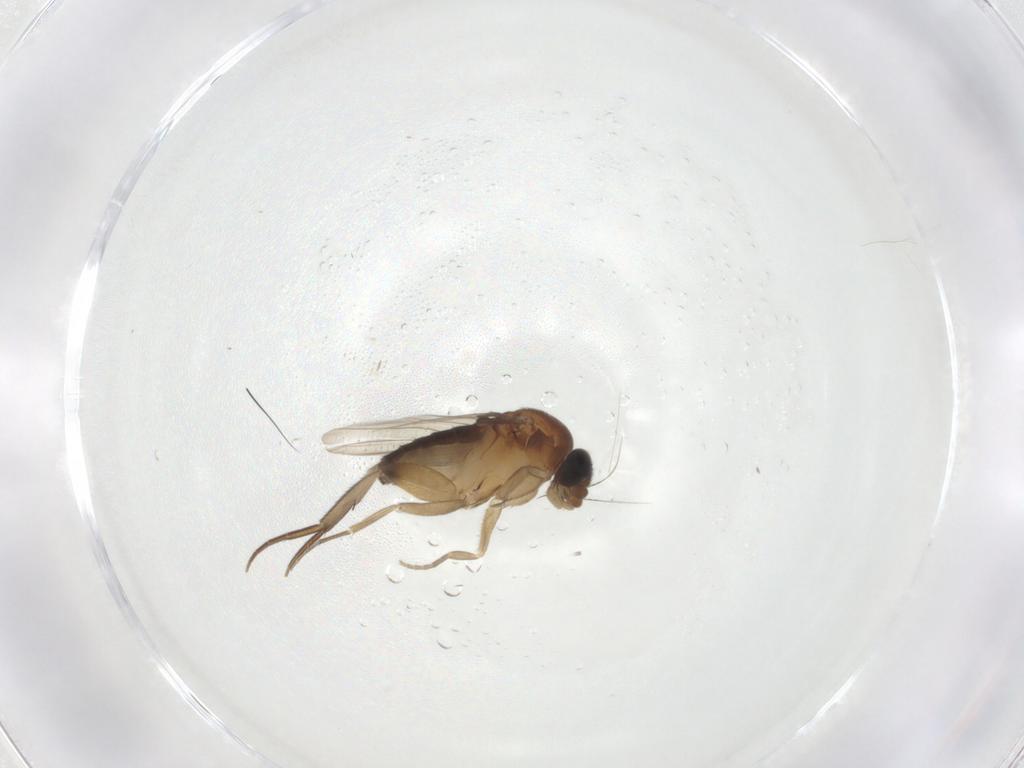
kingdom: Animalia
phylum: Arthropoda
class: Insecta
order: Diptera
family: Phoridae
